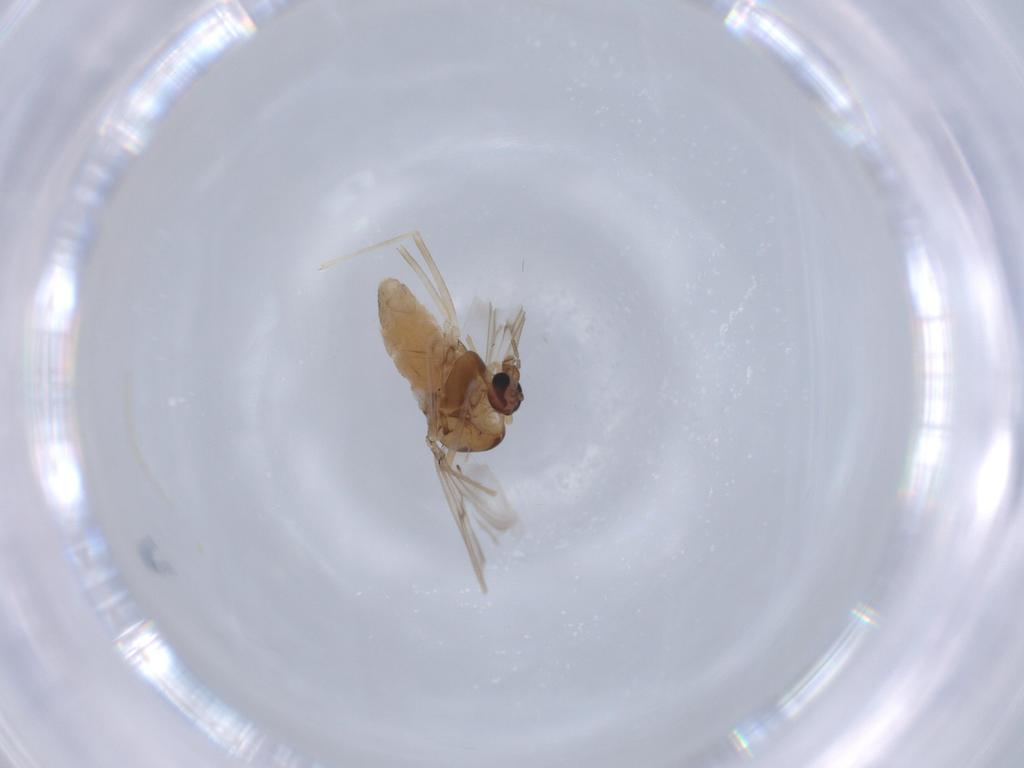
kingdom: Animalia
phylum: Arthropoda
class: Insecta
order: Diptera
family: Chironomidae
